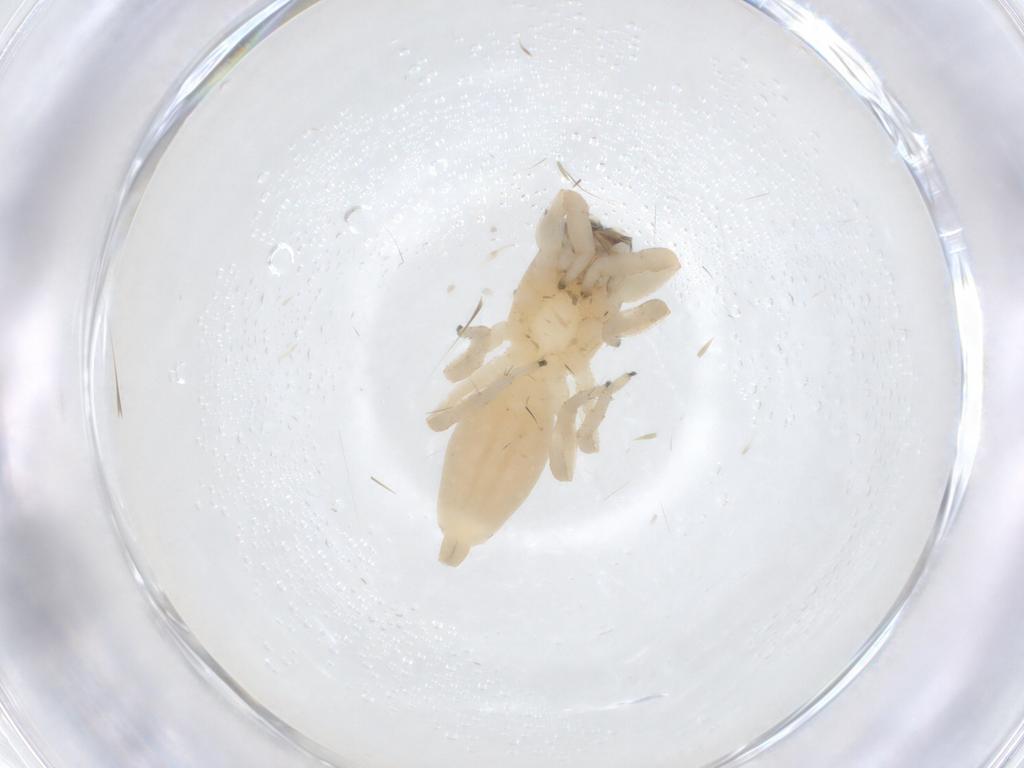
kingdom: Animalia
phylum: Arthropoda
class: Arachnida
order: Araneae
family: Salticidae
